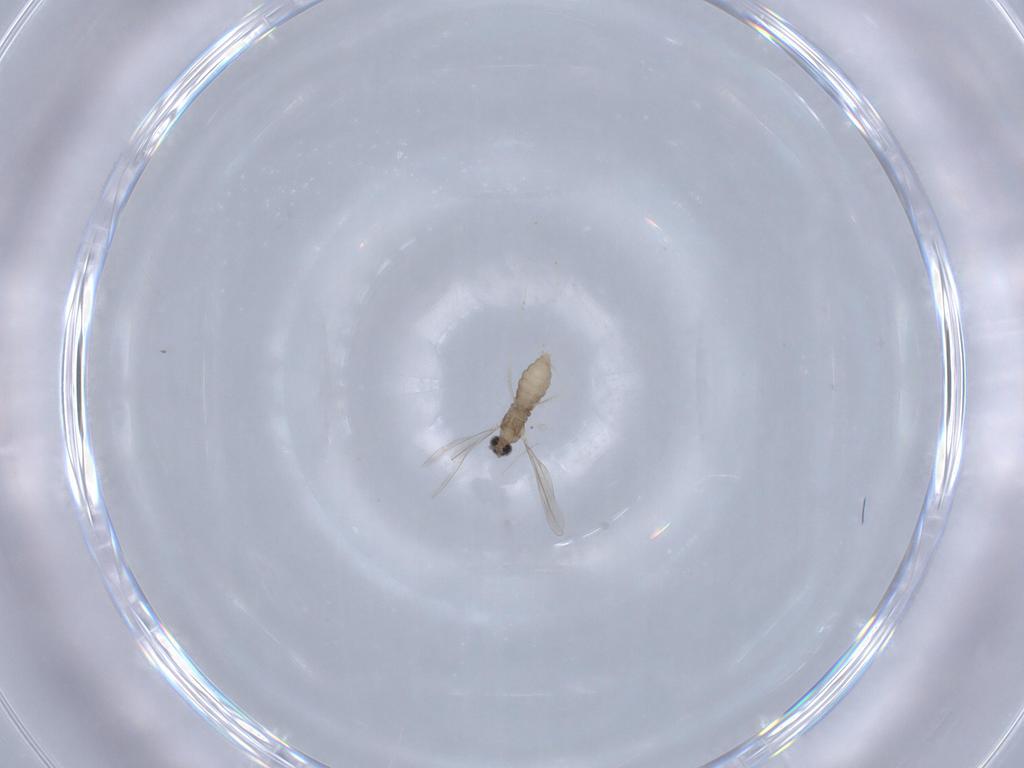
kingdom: Animalia
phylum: Arthropoda
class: Insecta
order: Diptera
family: Cecidomyiidae
